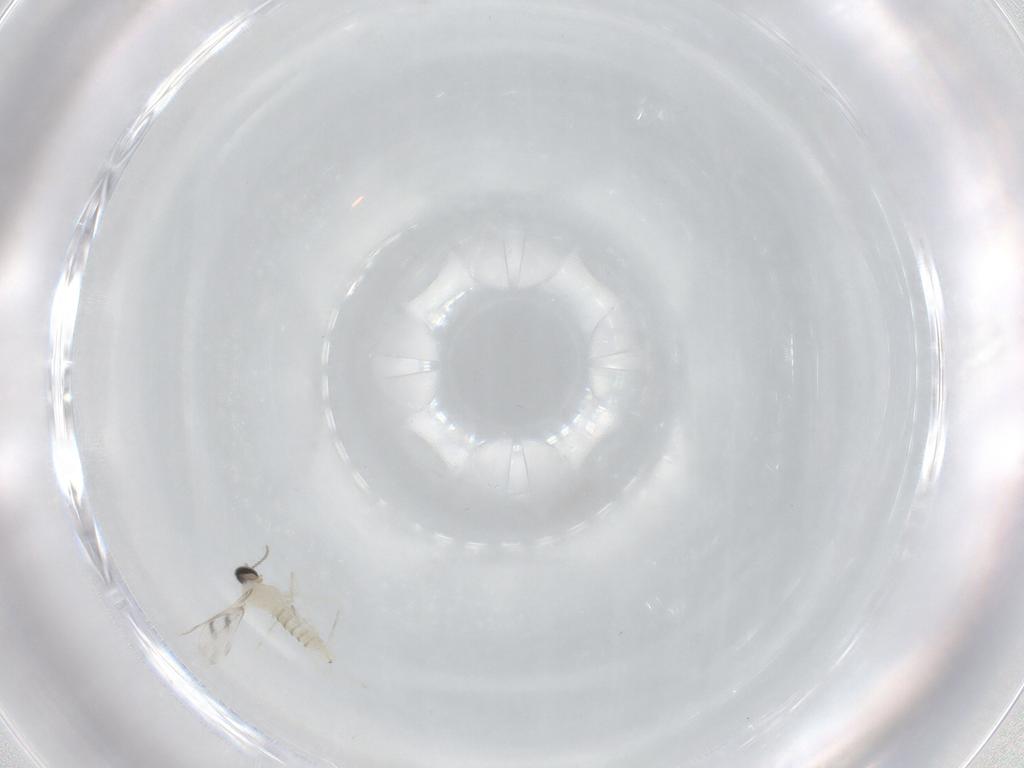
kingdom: Animalia
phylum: Arthropoda
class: Insecta
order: Diptera
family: Cecidomyiidae
